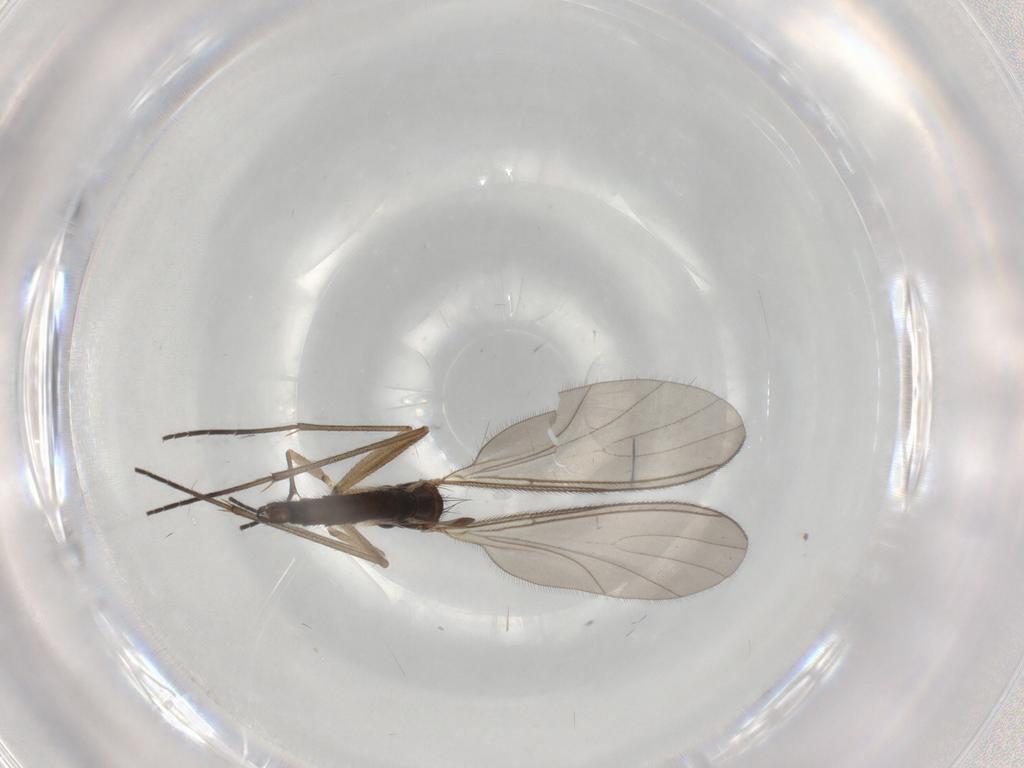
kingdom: Animalia
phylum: Arthropoda
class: Insecta
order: Diptera
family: Sciaridae
